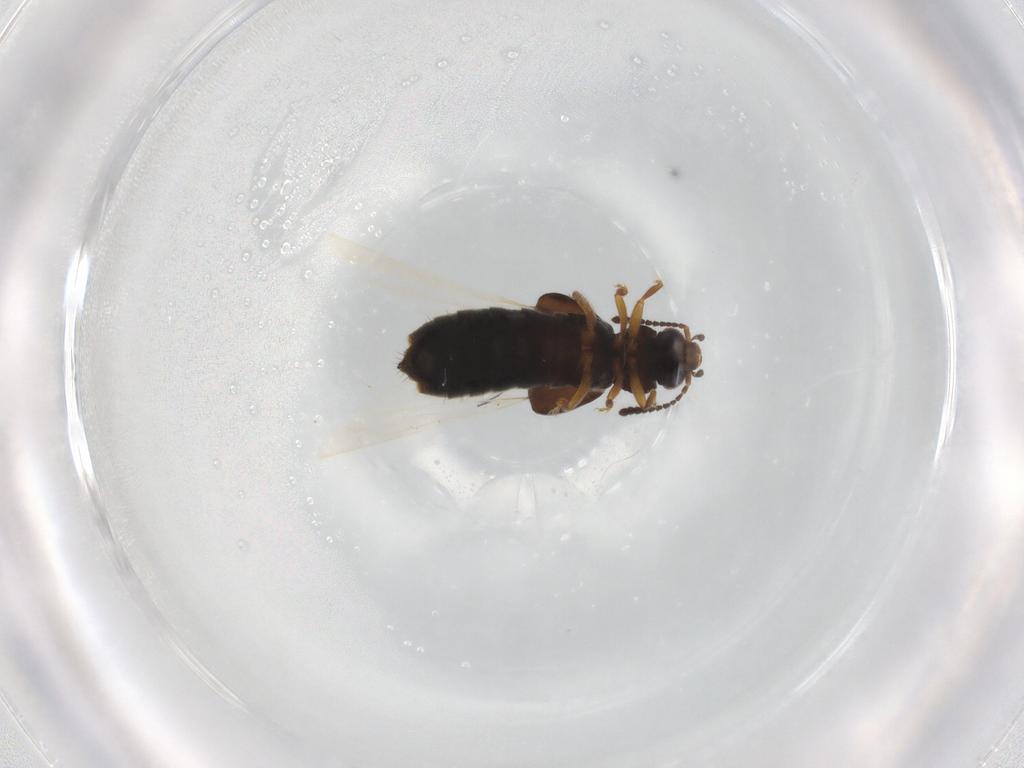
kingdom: Animalia
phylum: Arthropoda
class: Insecta
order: Coleoptera
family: Staphylinidae
